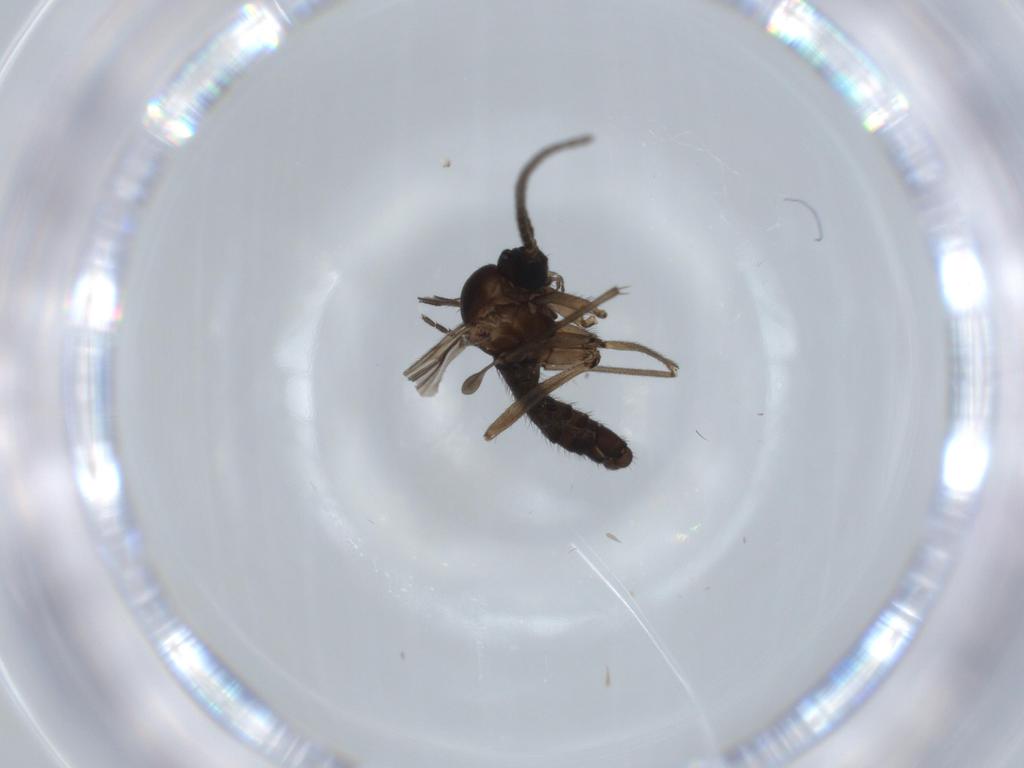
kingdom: Animalia
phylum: Arthropoda
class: Insecta
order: Diptera
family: Sciaridae
